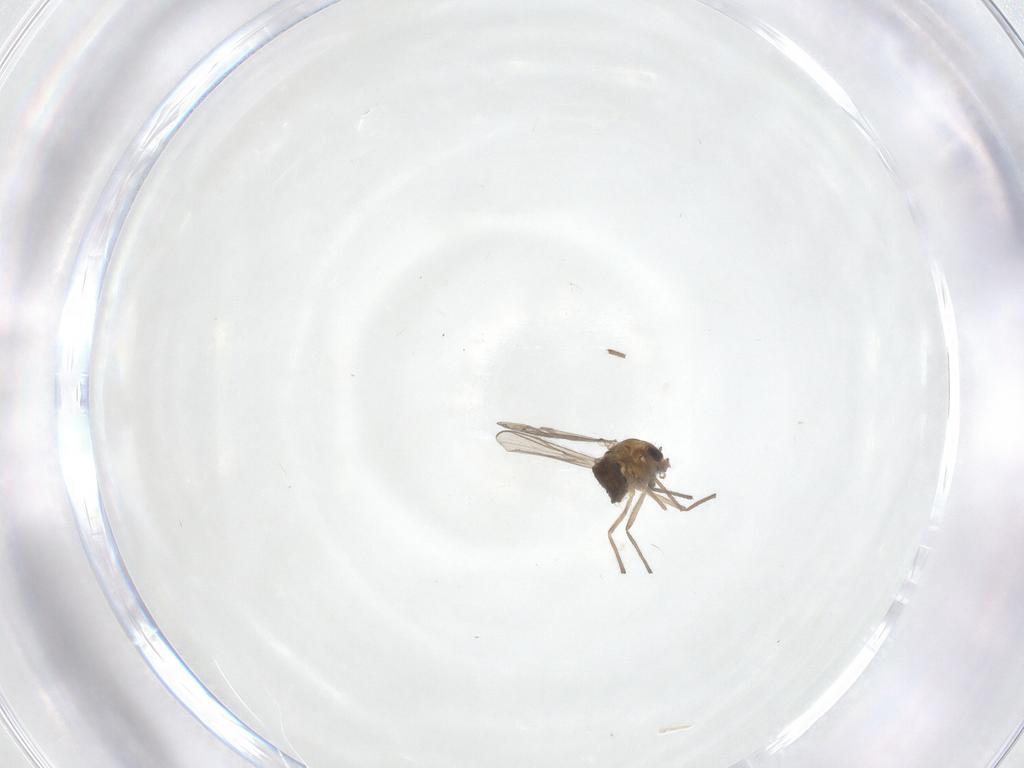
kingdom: Animalia
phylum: Arthropoda
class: Insecta
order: Diptera
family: Chironomidae
